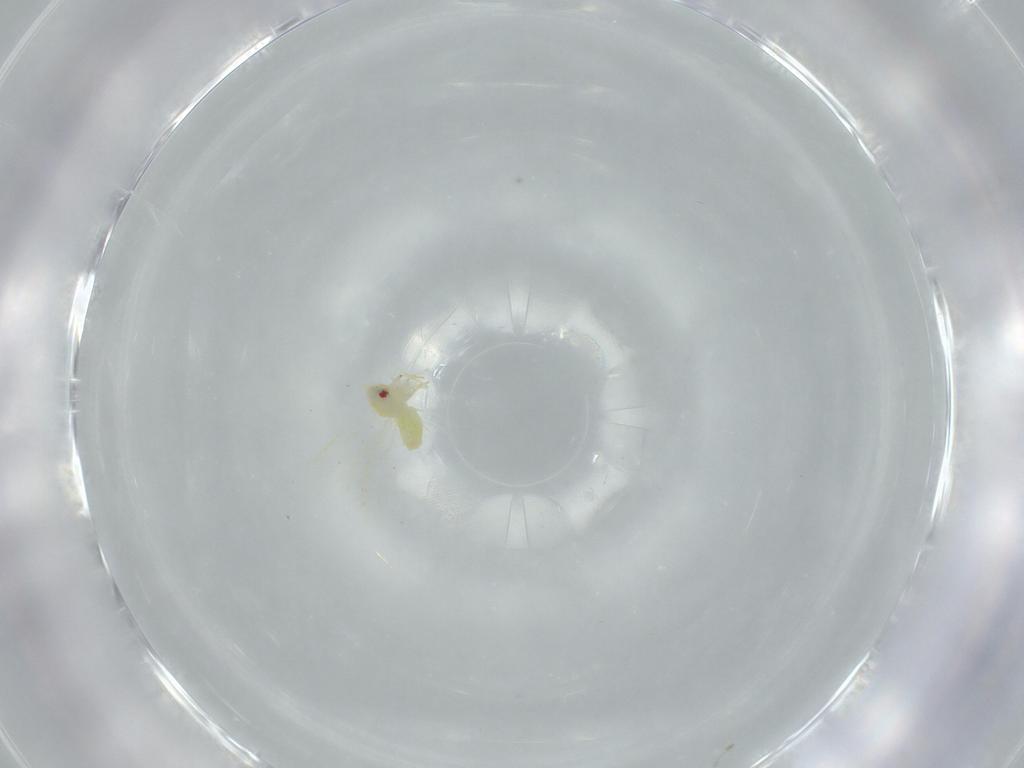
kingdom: Animalia
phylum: Arthropoda
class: Insecta
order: Hemiptera
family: Aleyrodidae
